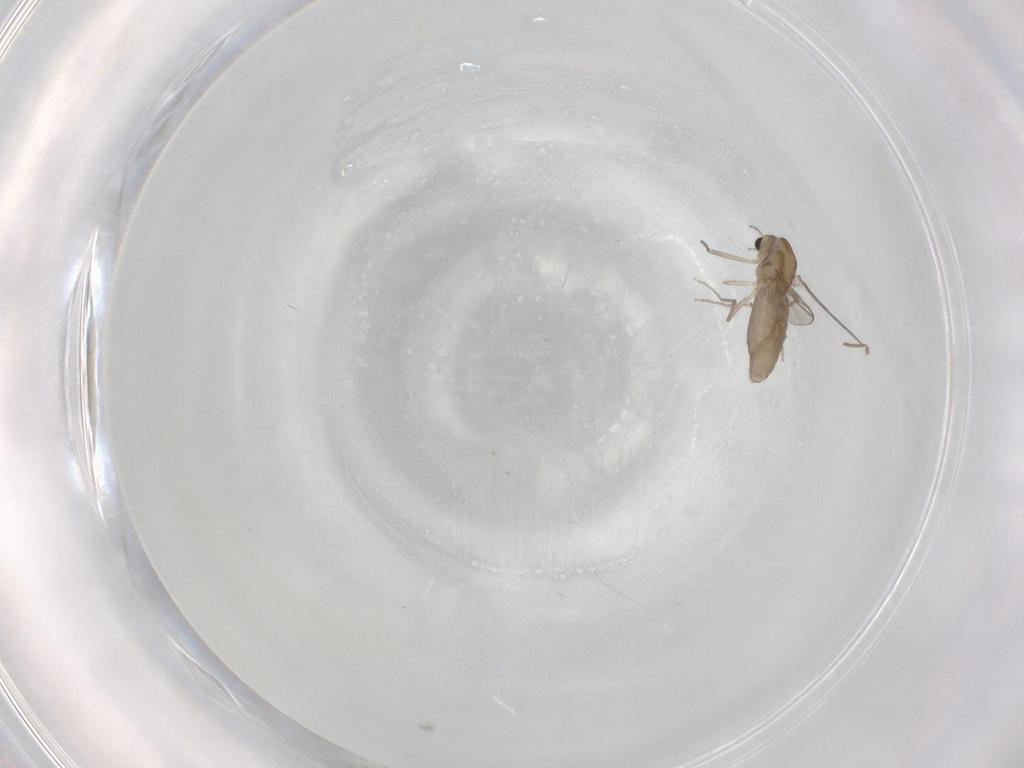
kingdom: Animalia
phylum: Arthropoda
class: Insecta
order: Diptera
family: Chironomidae
